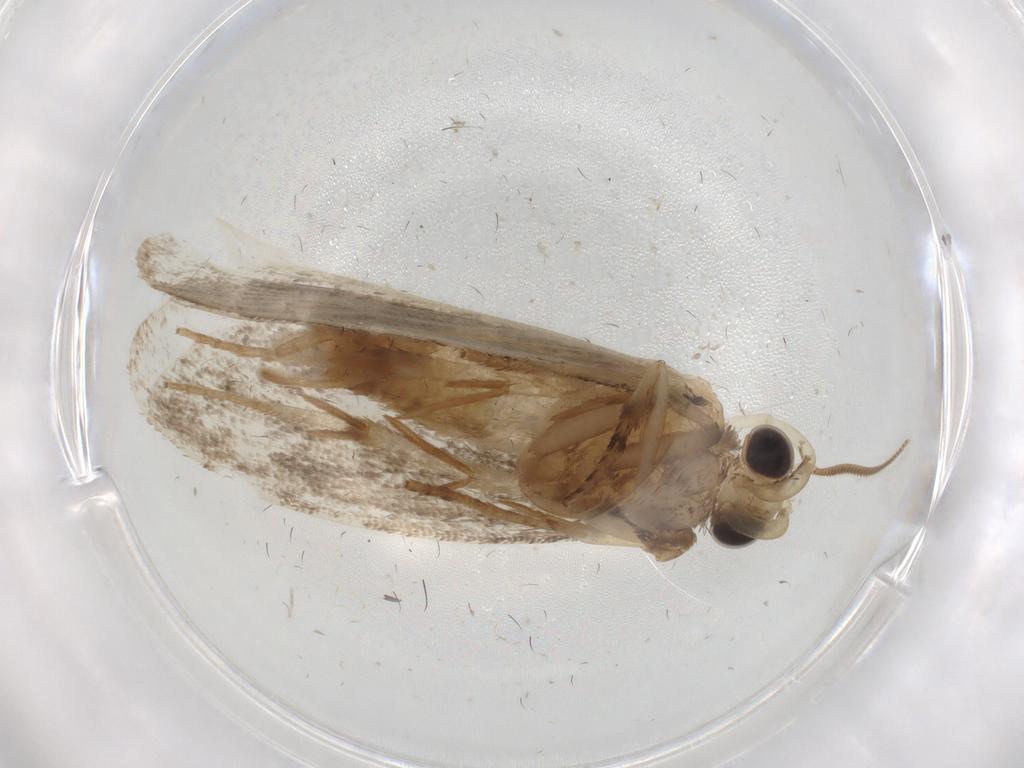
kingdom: Animalia
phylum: Arthropoda
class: Insecta
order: Lepidoptera
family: Tineidae
